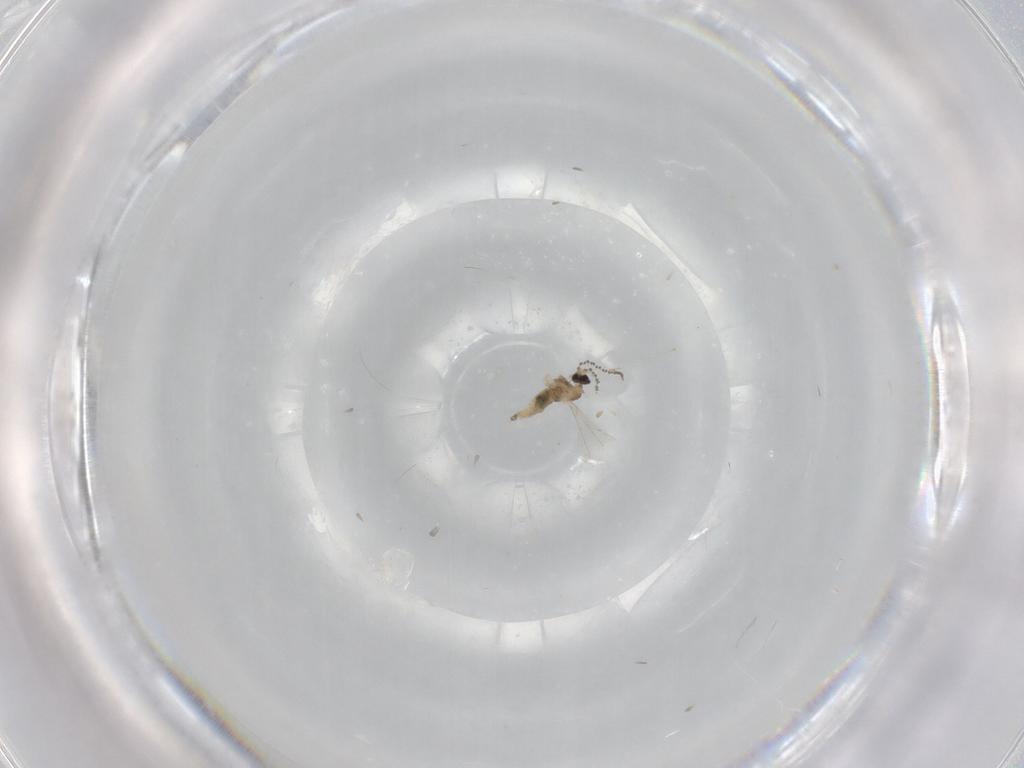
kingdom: Animalia
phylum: Arthropoda
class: Insecta
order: Diptera
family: Cecidomyiidae
